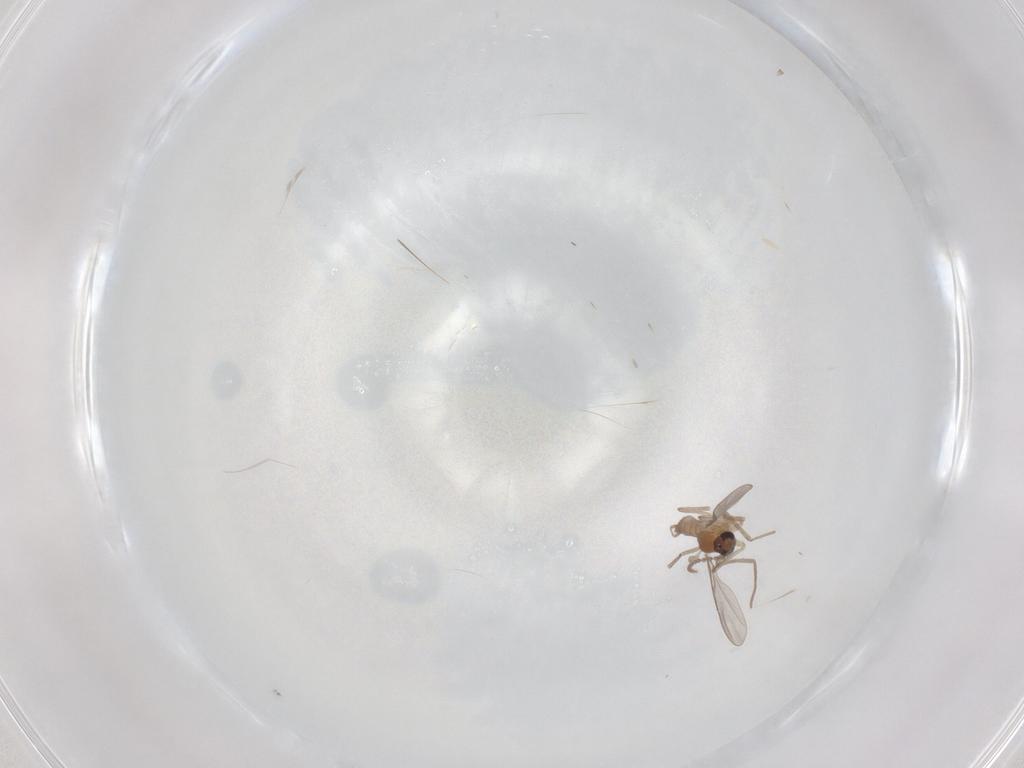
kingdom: Animalia
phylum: Arthropoda
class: Insecta
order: Diptera
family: Cecidomyiidae
